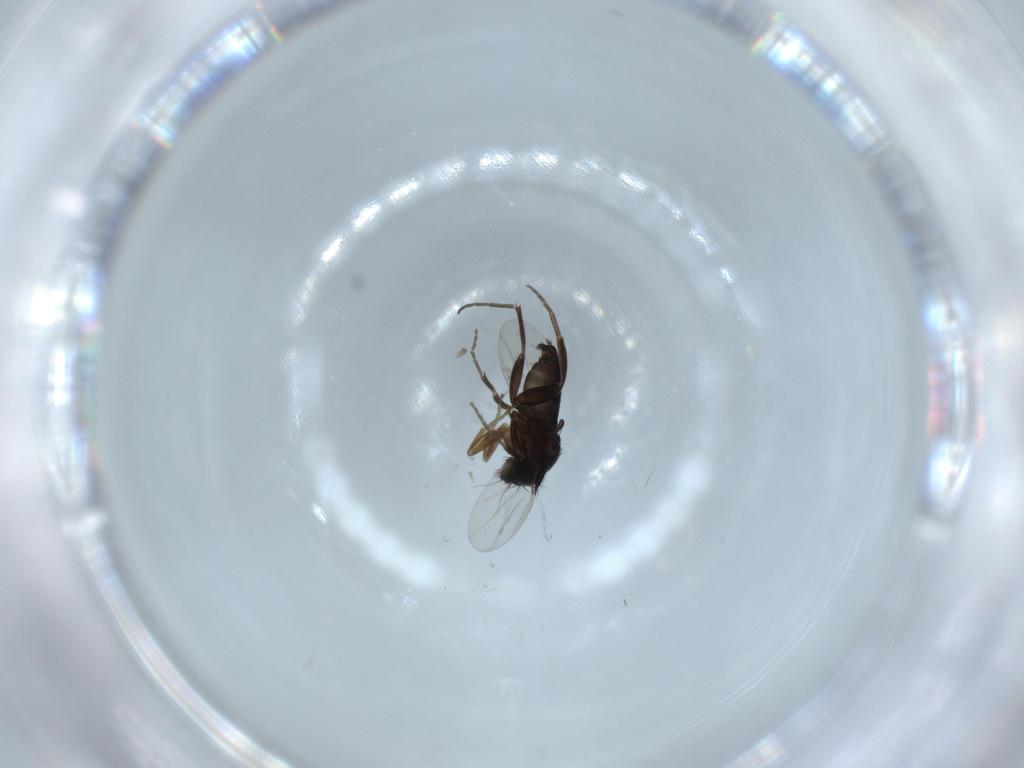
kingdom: Animalia
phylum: Arthropoda
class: Insecta
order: Diptera
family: Phoridae
